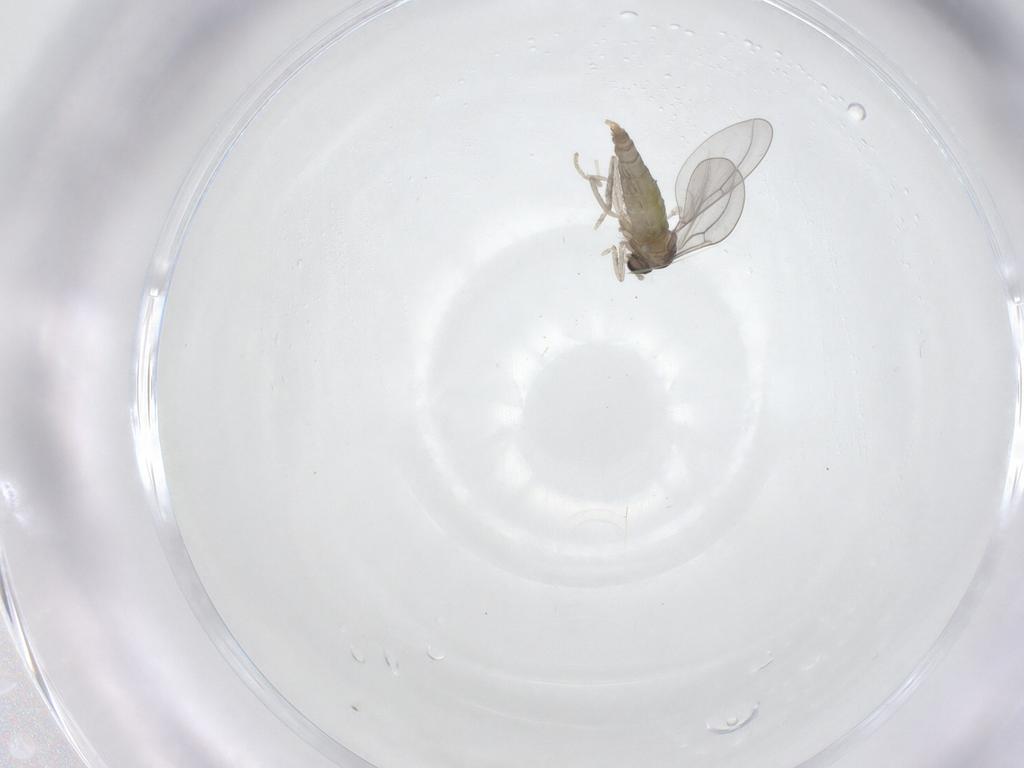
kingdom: Animalia
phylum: Arthropoda
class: Insecta
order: Diptera
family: Cecidomyiidae
